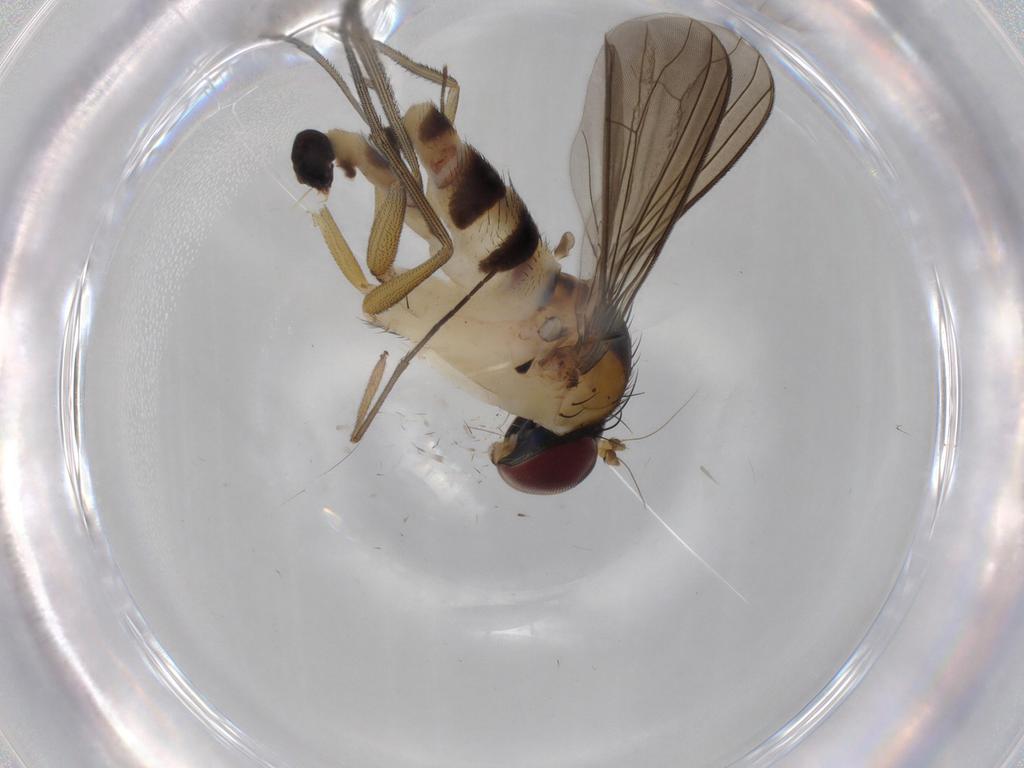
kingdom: Animalia
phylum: Arthropoda
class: Insecta
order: Diptera
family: Dolichopodidae
